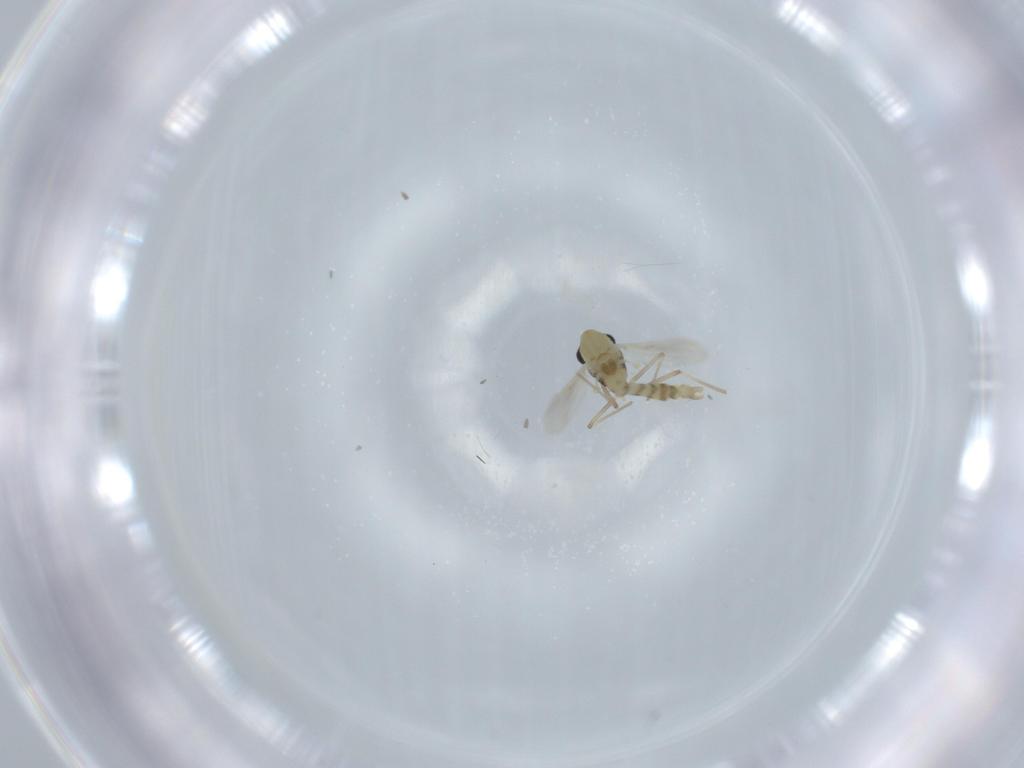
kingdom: Animalia
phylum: Arthropoda
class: Insecta
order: Diptera
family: Chironomidae
